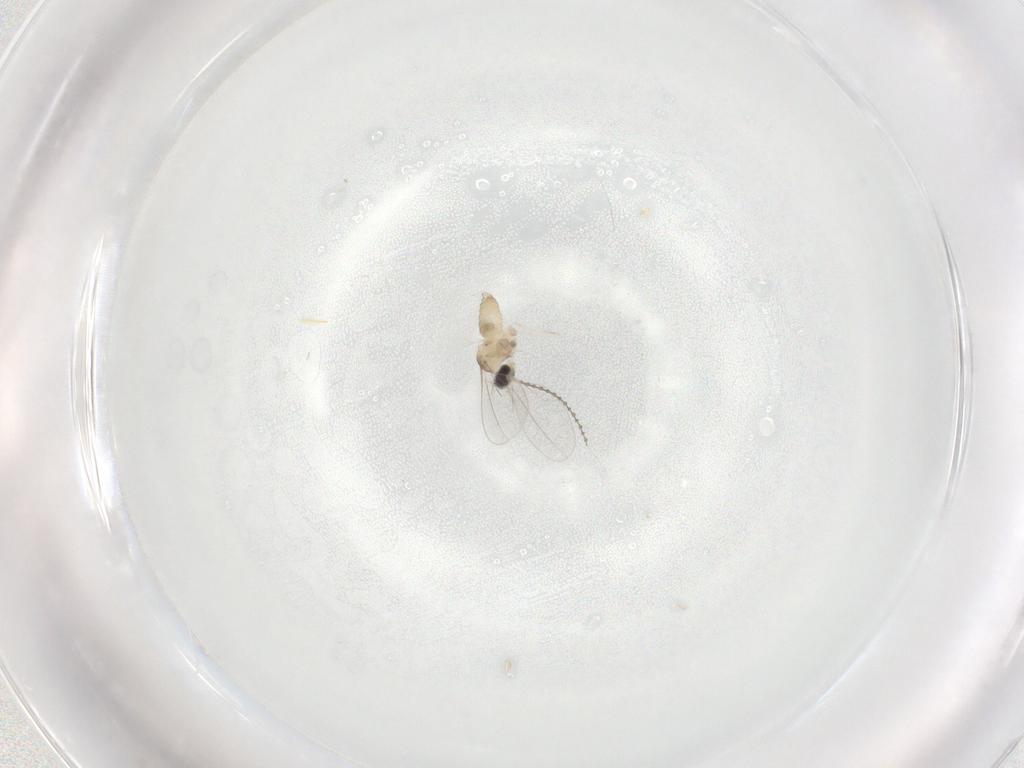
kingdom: Animalia
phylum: Arthropoda
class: Insecta
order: Diptera
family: Cecidomyiidae
